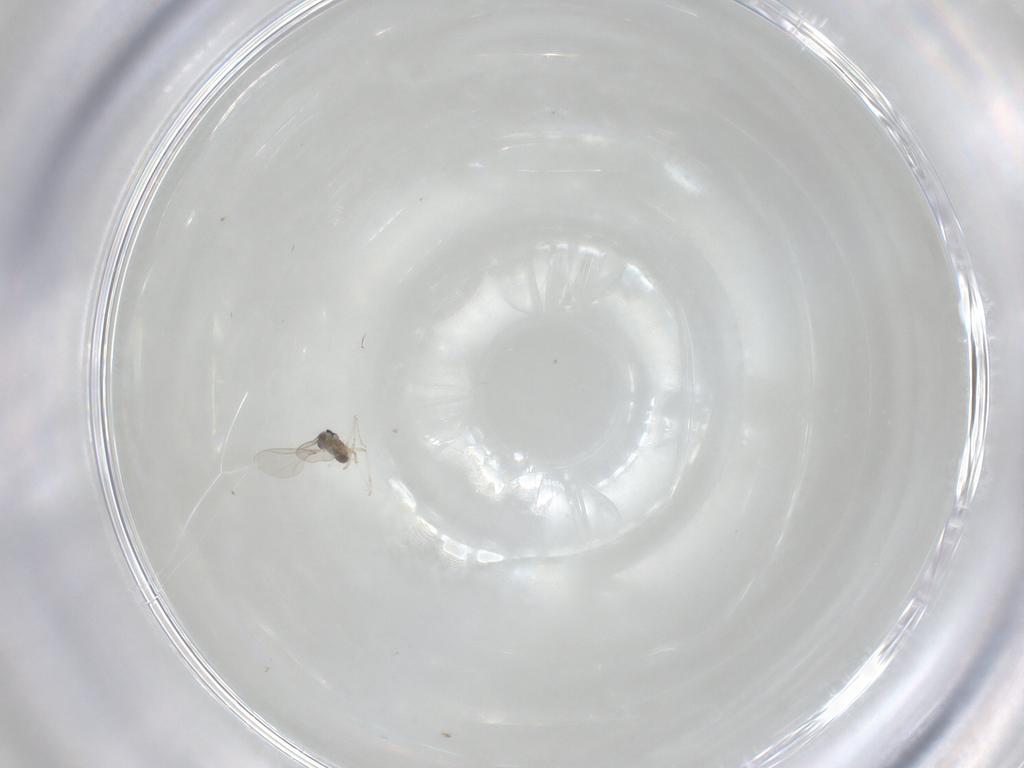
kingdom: Animalia
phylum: Arthropoda
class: Insecta
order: Diptera
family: Cecidomyiidae
